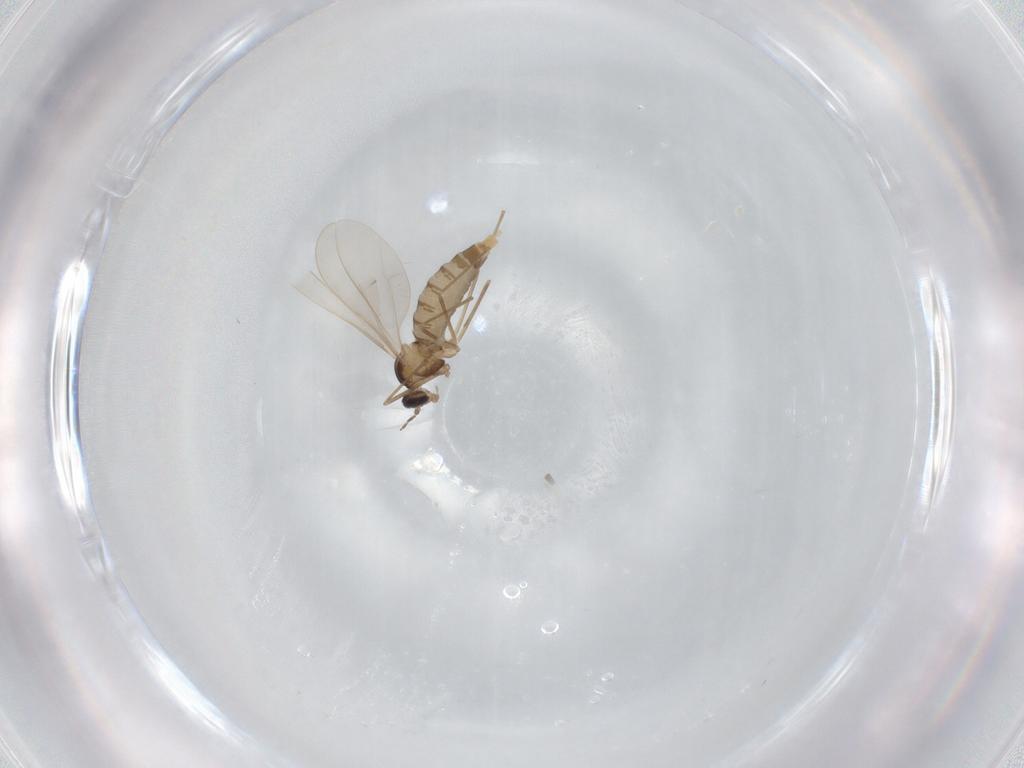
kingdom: Animalia
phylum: Arthropoda
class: Insecta
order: Diptera
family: Cecidomyiidae
